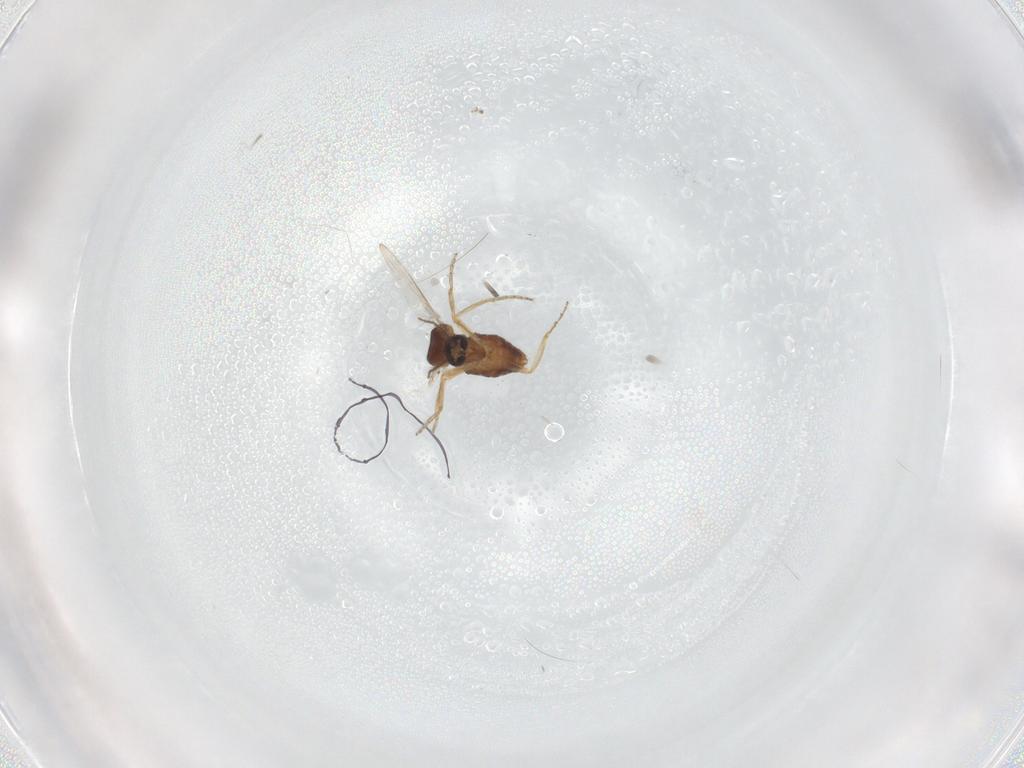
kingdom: Animalia
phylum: Arthropoda
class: Insecta
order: Diptera
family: Ceratopogonidae
